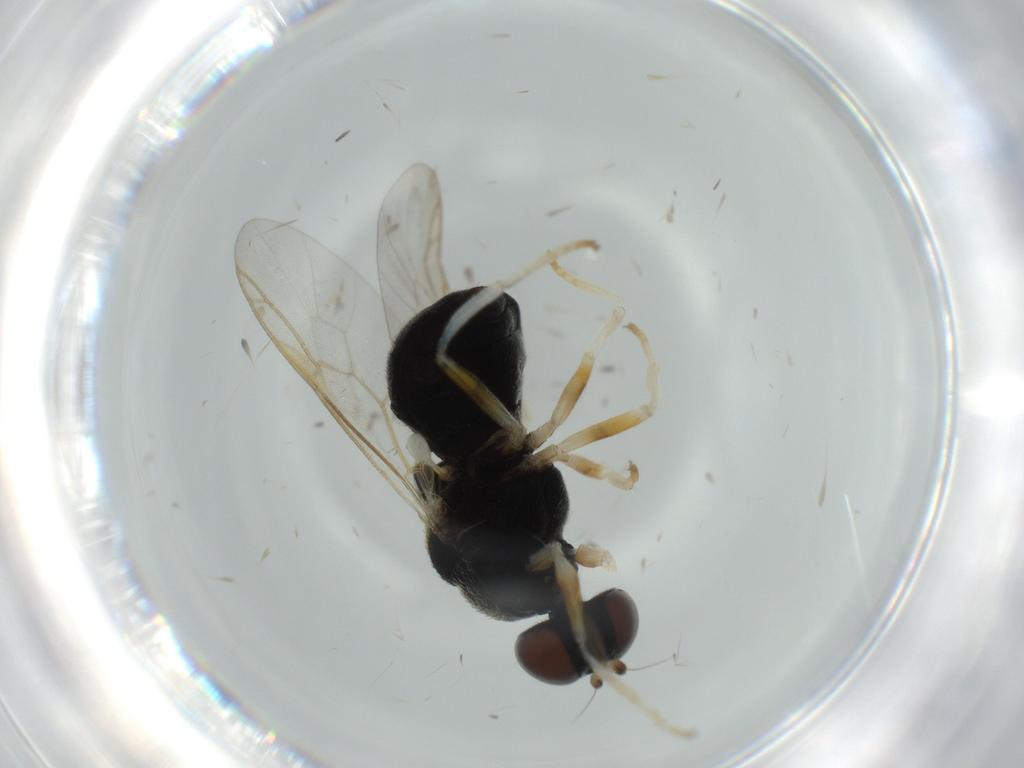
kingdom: Animalia
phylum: Arthropoda
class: Insecta
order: Diptera
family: Stratiomyidae
